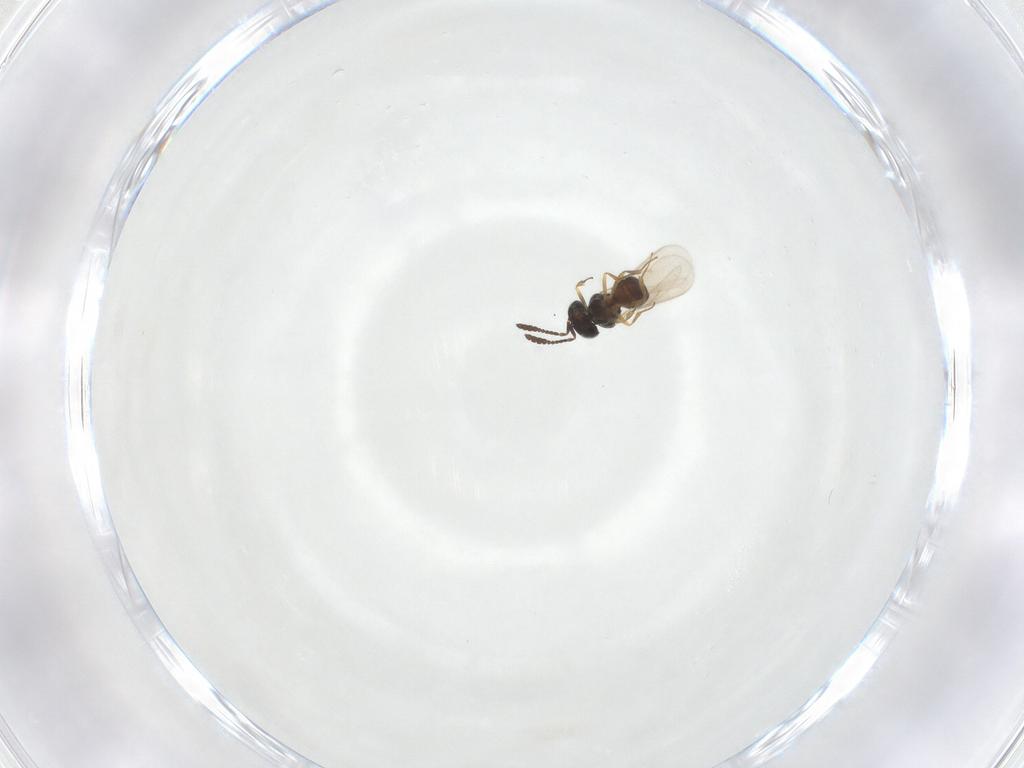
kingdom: Animalia
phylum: Arthropoda
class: Insecta
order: Hymenoptera
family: Scelionidae
